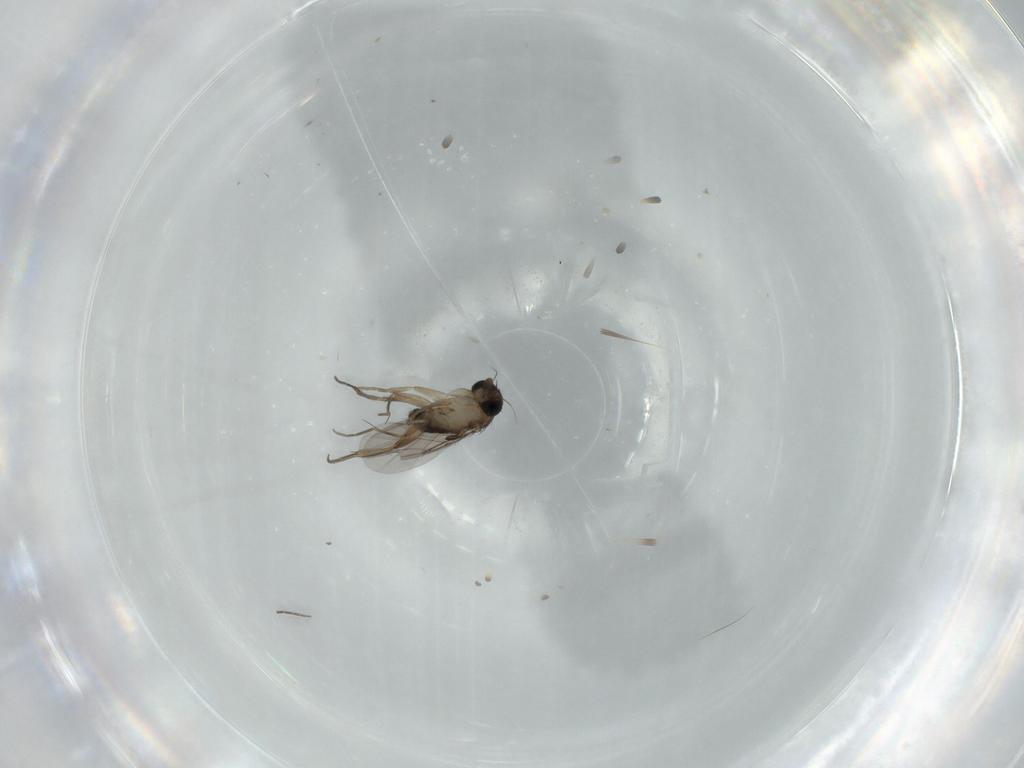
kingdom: Animalia
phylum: Arthropoda
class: Insecta
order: Diptera
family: Phoridae
